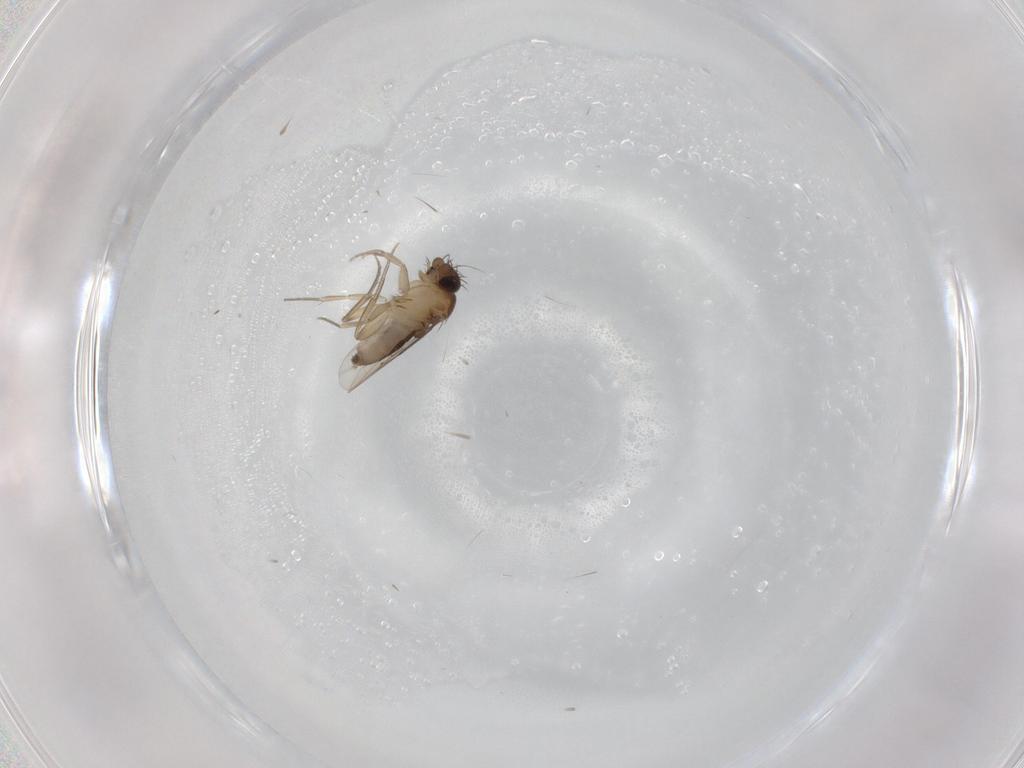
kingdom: Animalia
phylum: Arthropoda
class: Insecta
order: Diptera
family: Phoridae
